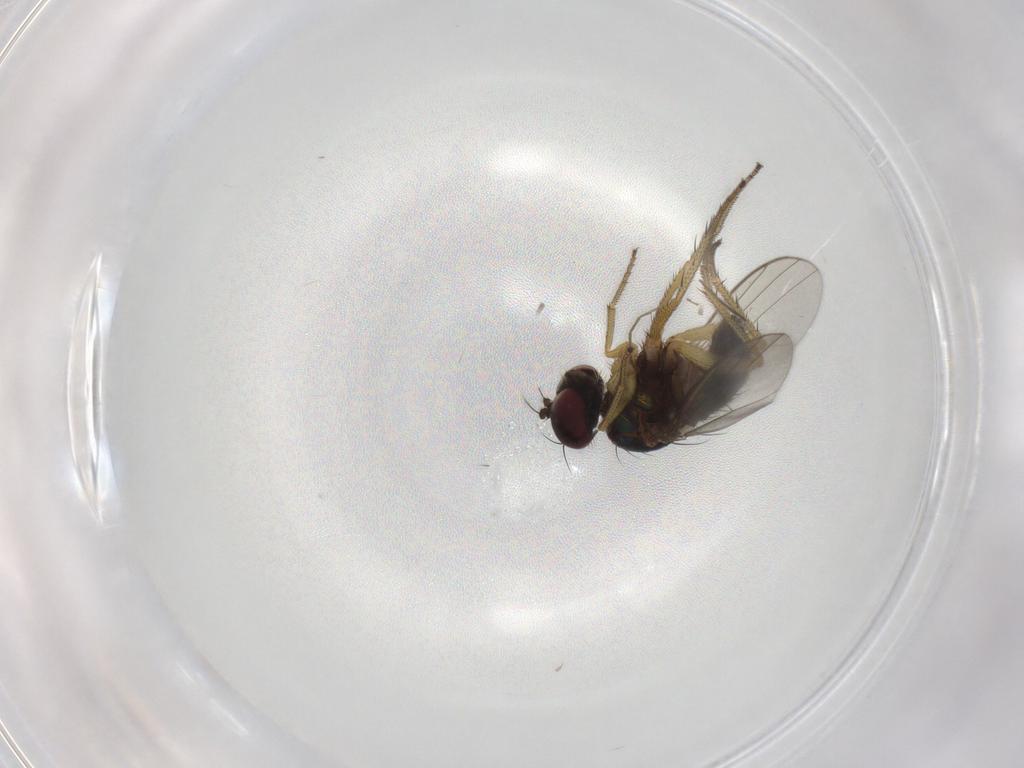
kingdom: Animalia
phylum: Arthropoda
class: Insecta
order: Diptera
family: Chironomidae
